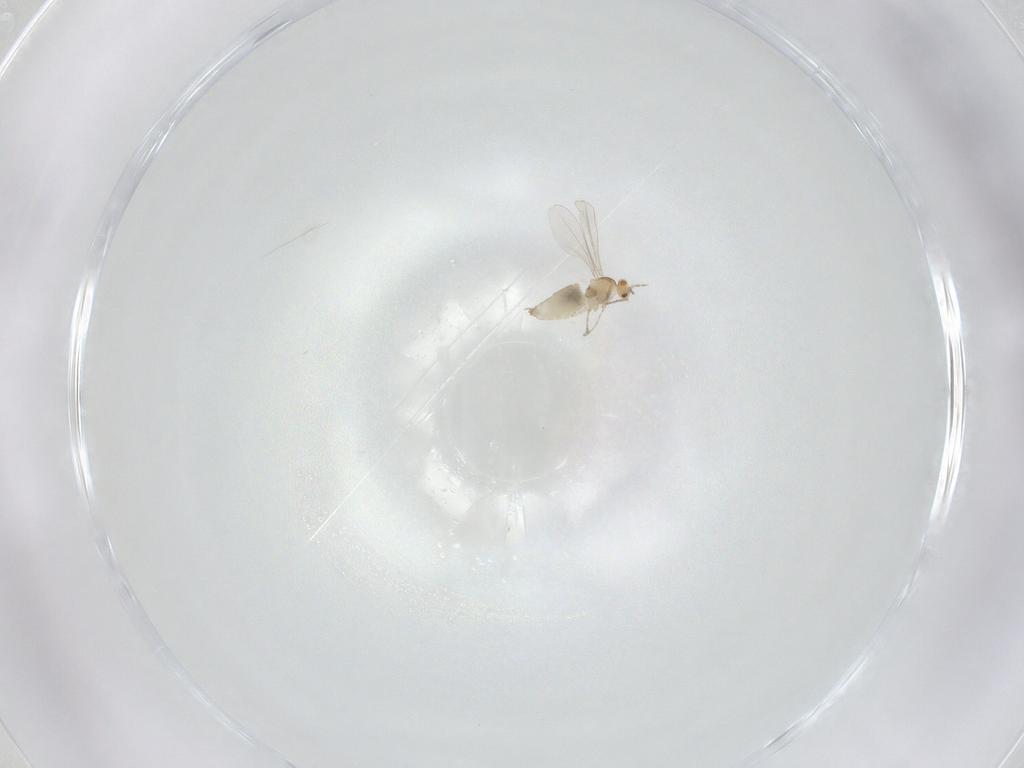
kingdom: Animalia
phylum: Arthropoda
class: Insecta
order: Diptera
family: Cecidomyiidae
